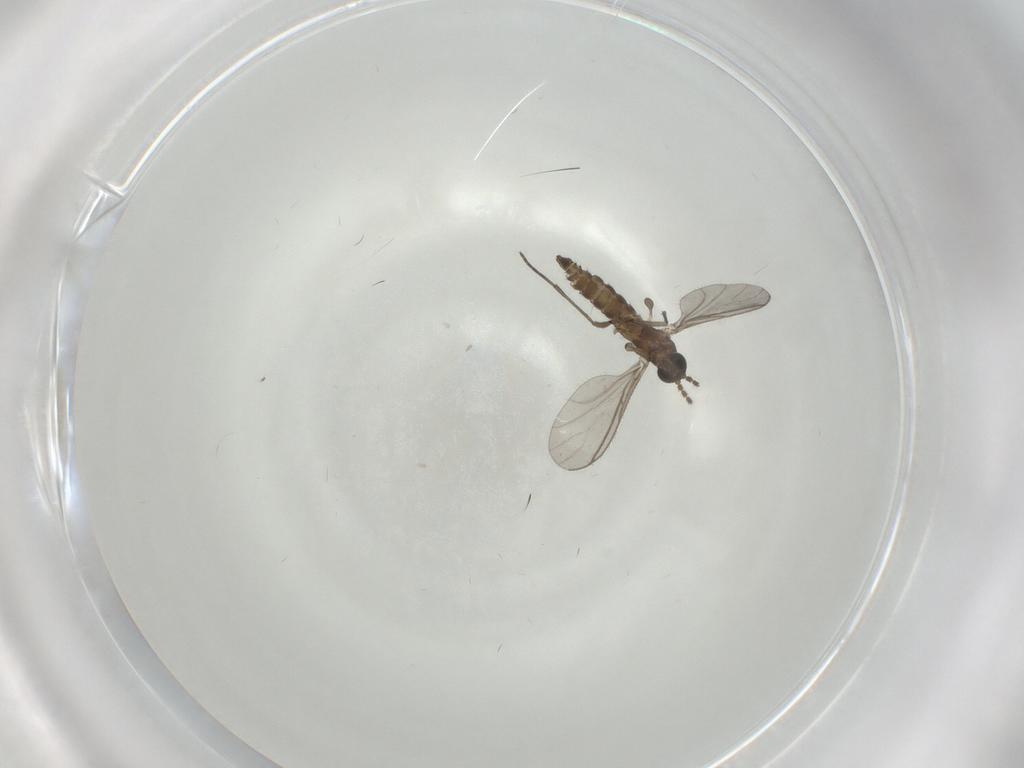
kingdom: Animalia
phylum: Arthropoda
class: Insecta
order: Diptera
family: Sciaridae
